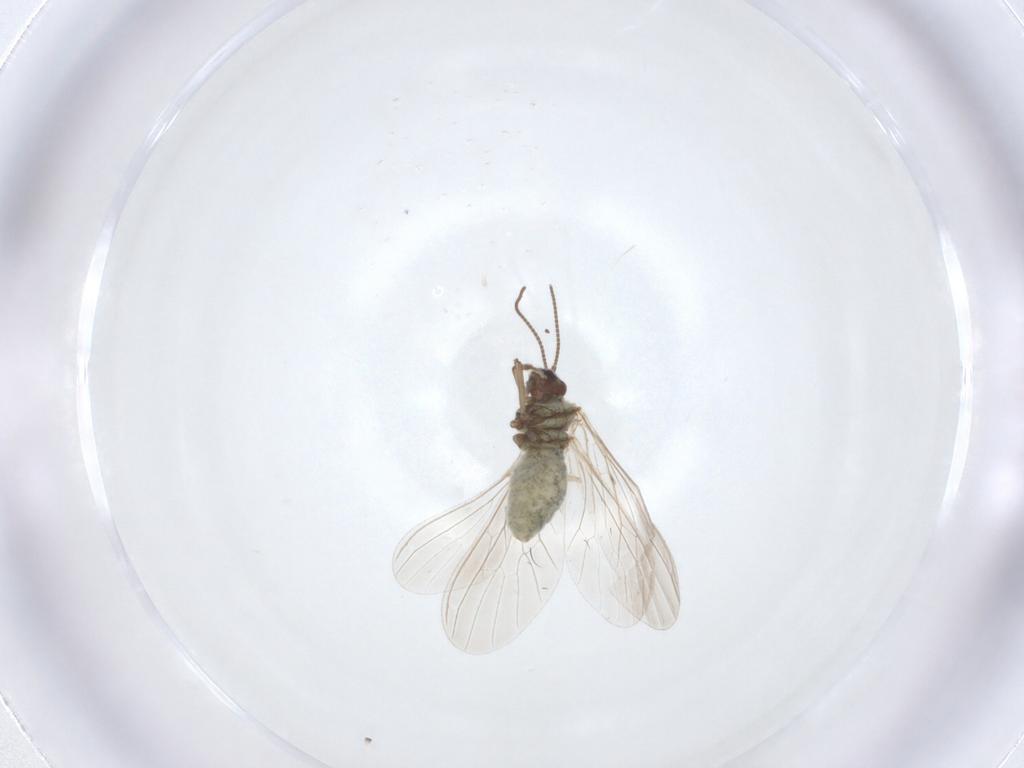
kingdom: Animalia
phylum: Arthropoda
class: Insecta
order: Neuroptera
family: Coniopterygidae
